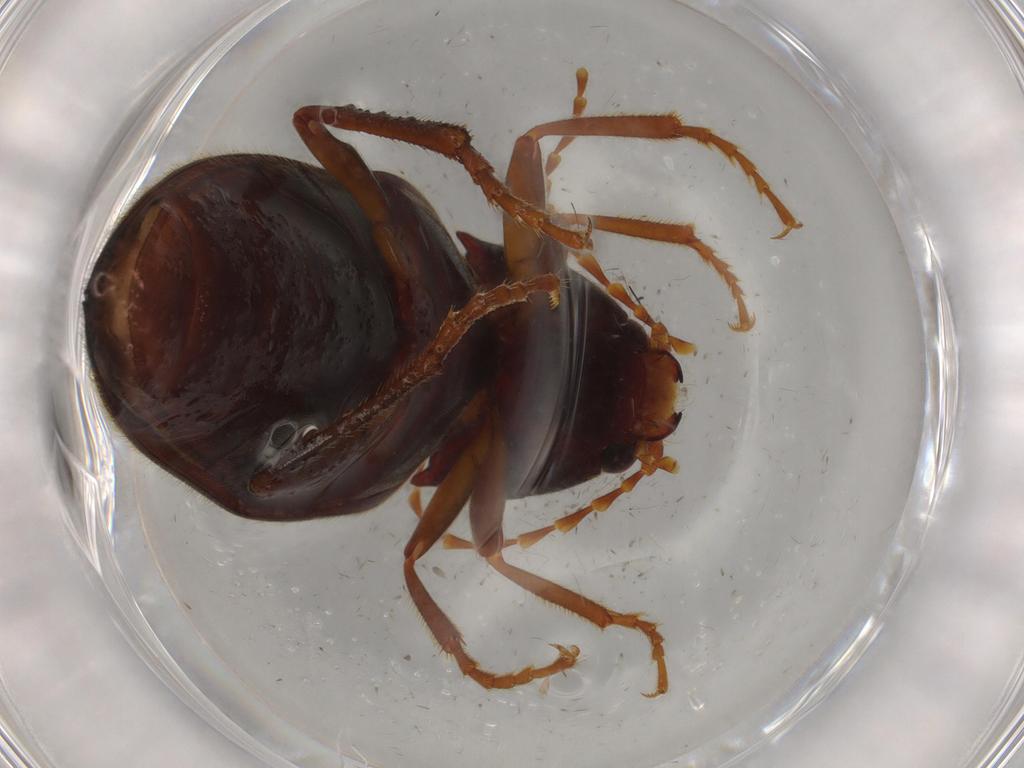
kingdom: Animalia
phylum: Arthropoda
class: Insecta
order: Coleoptera
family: Elateridae
